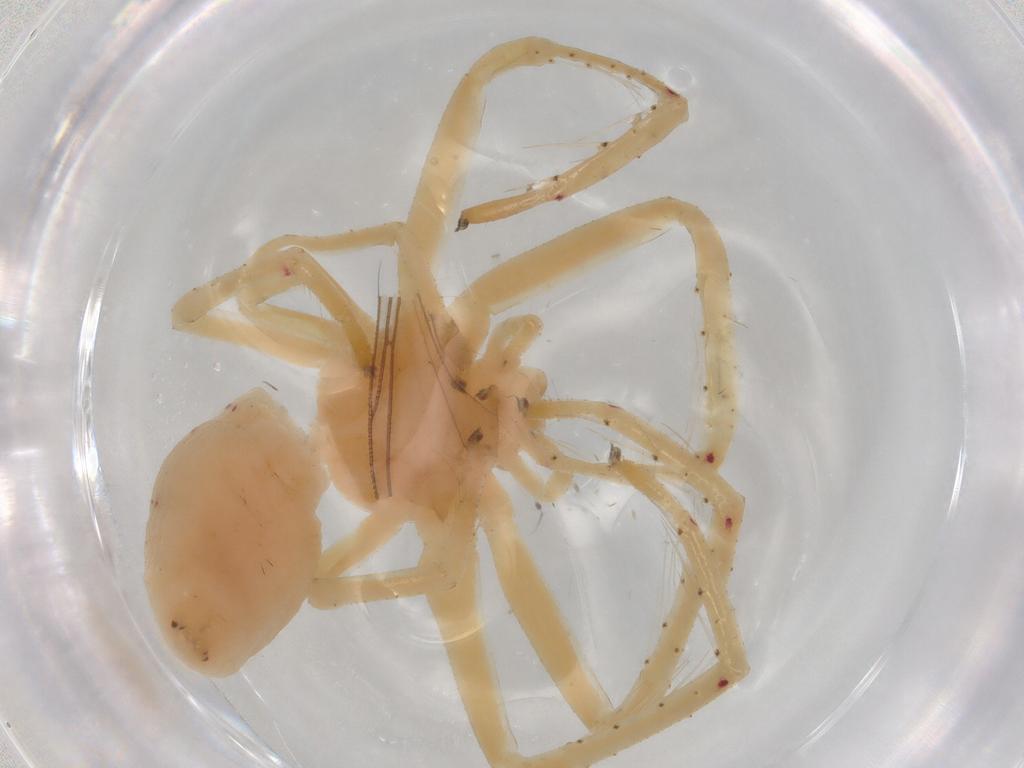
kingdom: Animalia
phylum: Arthropoda
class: Arachnida
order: Araneae
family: Thomisidae
